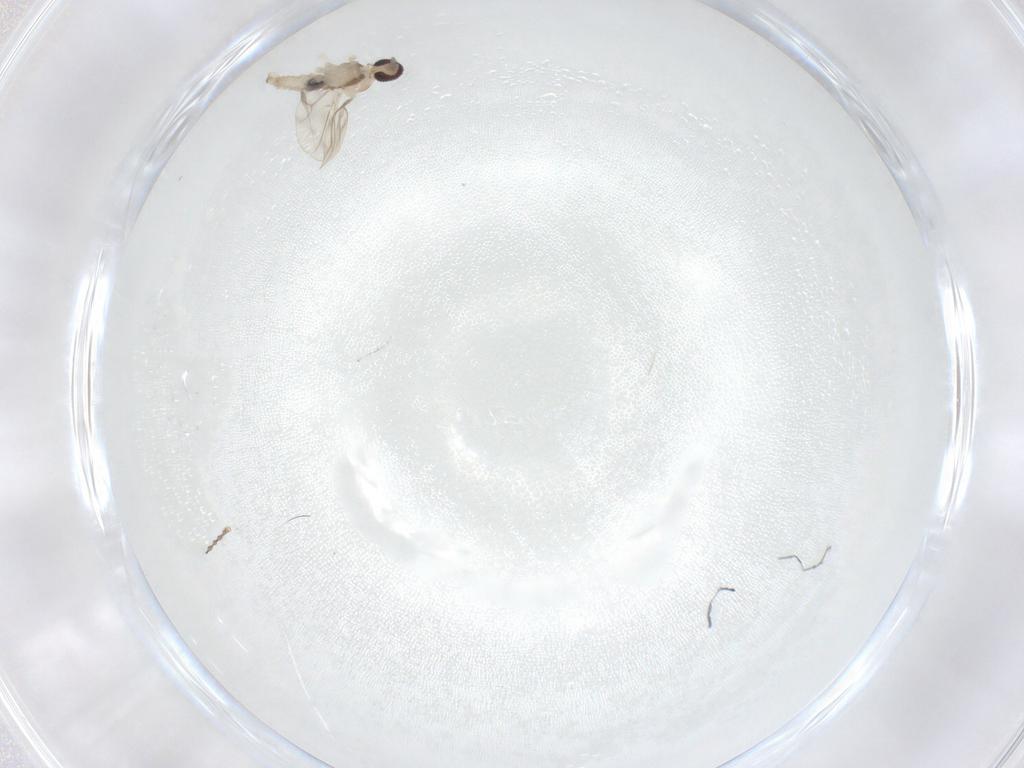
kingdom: Animalia
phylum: Arthropoda
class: Insecta
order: Diptera
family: Cecidomyiidae
